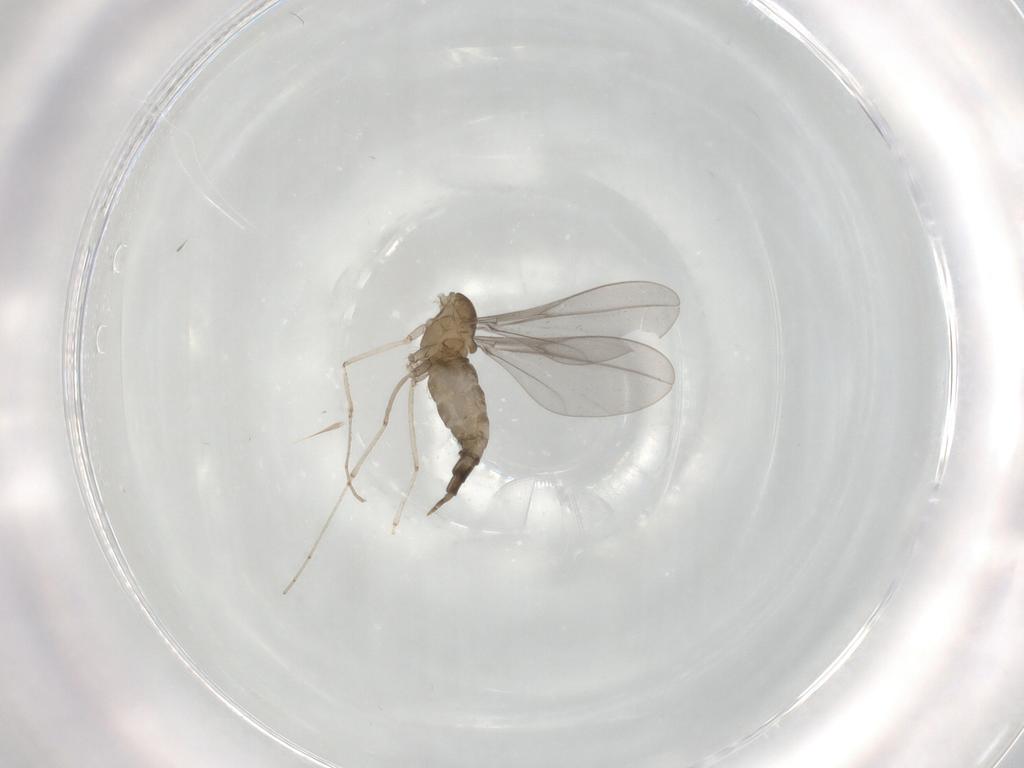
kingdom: Animalia
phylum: Arthropoda
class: Insecta
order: Diptera
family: Cecidomyiidae
